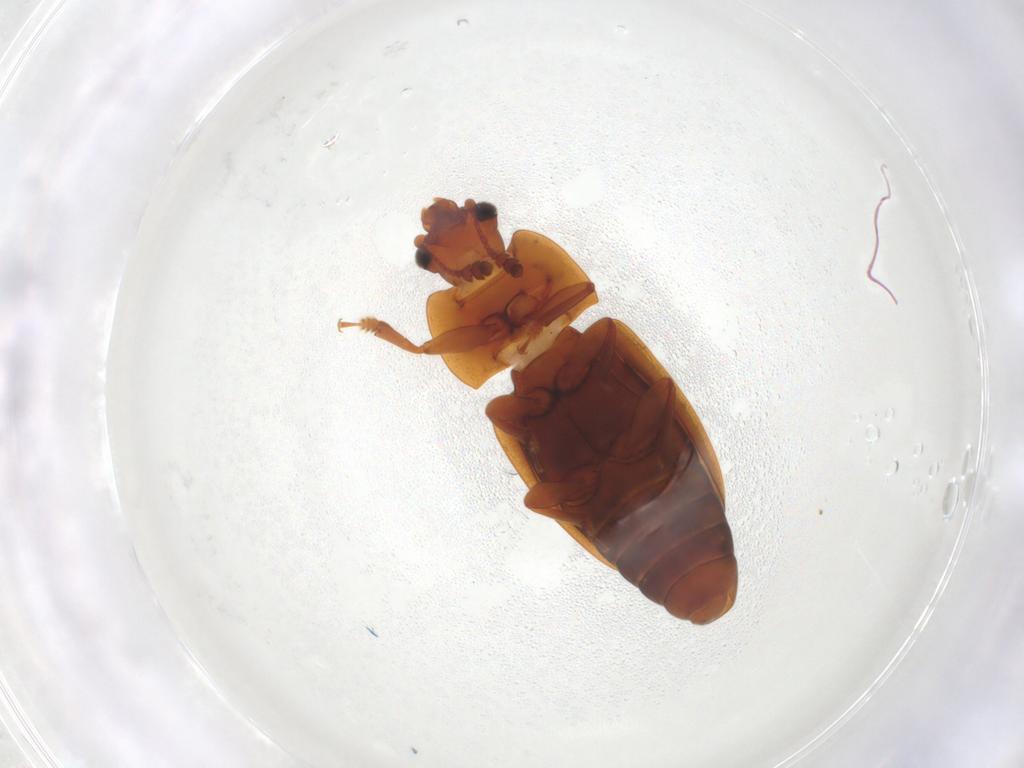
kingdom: Animalia
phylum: Arthropoda
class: Insecta
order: Coleoptera
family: Nitidulidae
